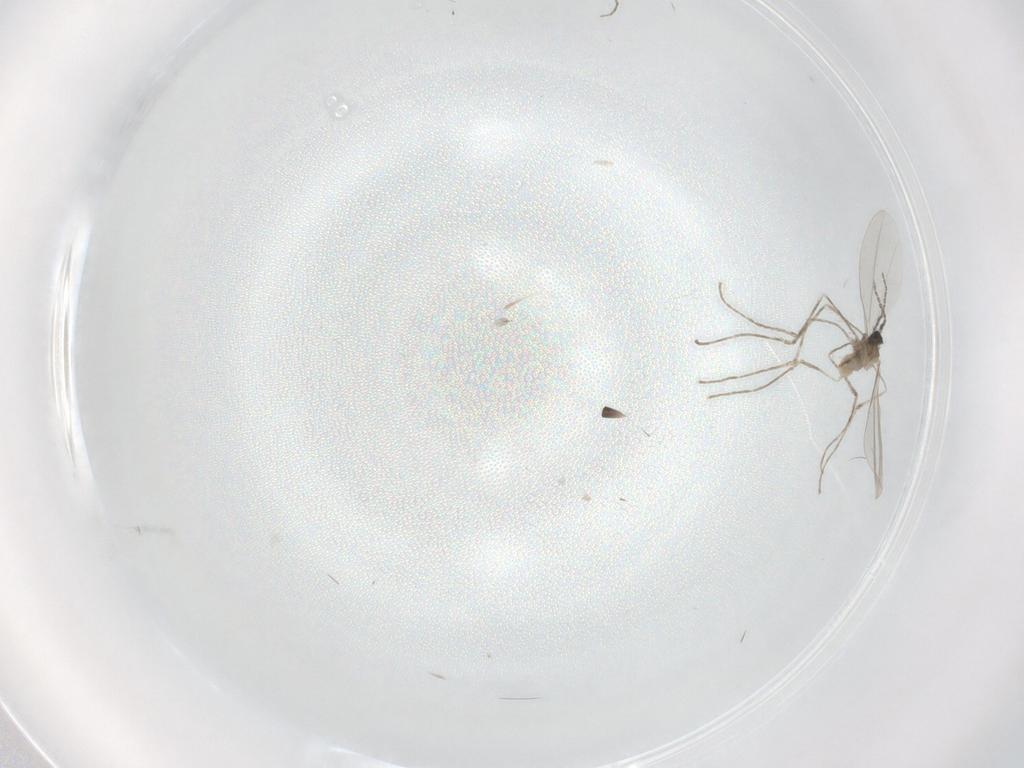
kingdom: Animalia
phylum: Arthropoda
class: Insecta
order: Diptera
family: Cecidomyiidae
